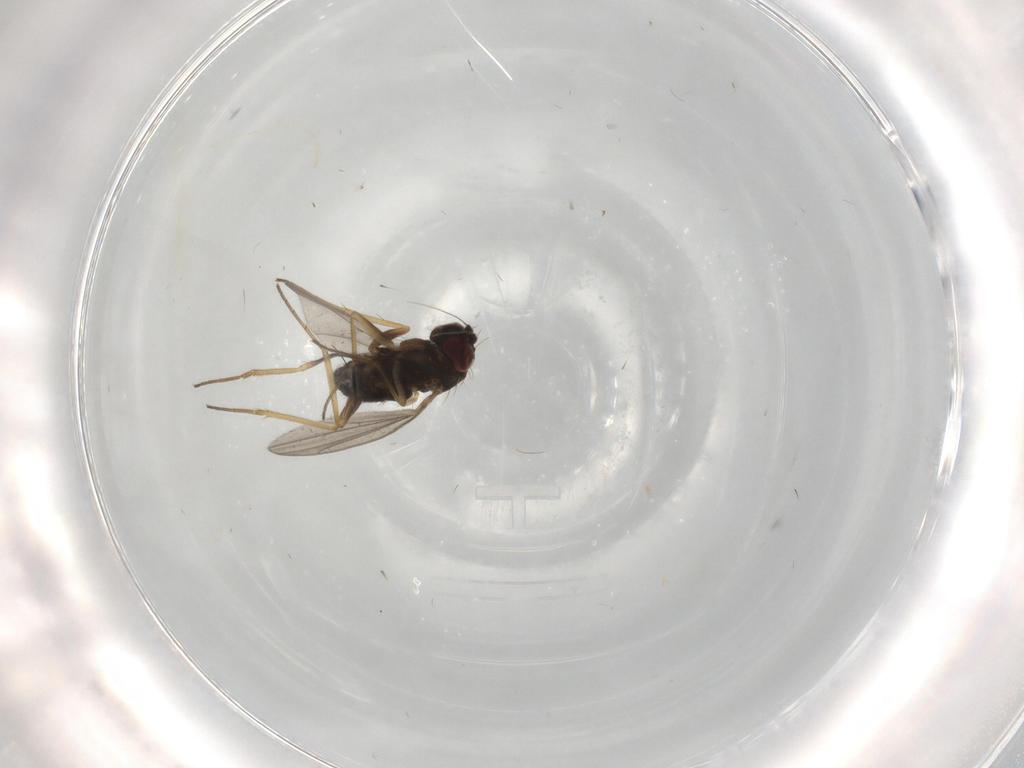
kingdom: Animalia
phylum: Arthropoda
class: Insecta
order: Diptera
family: Dolichopodidae
